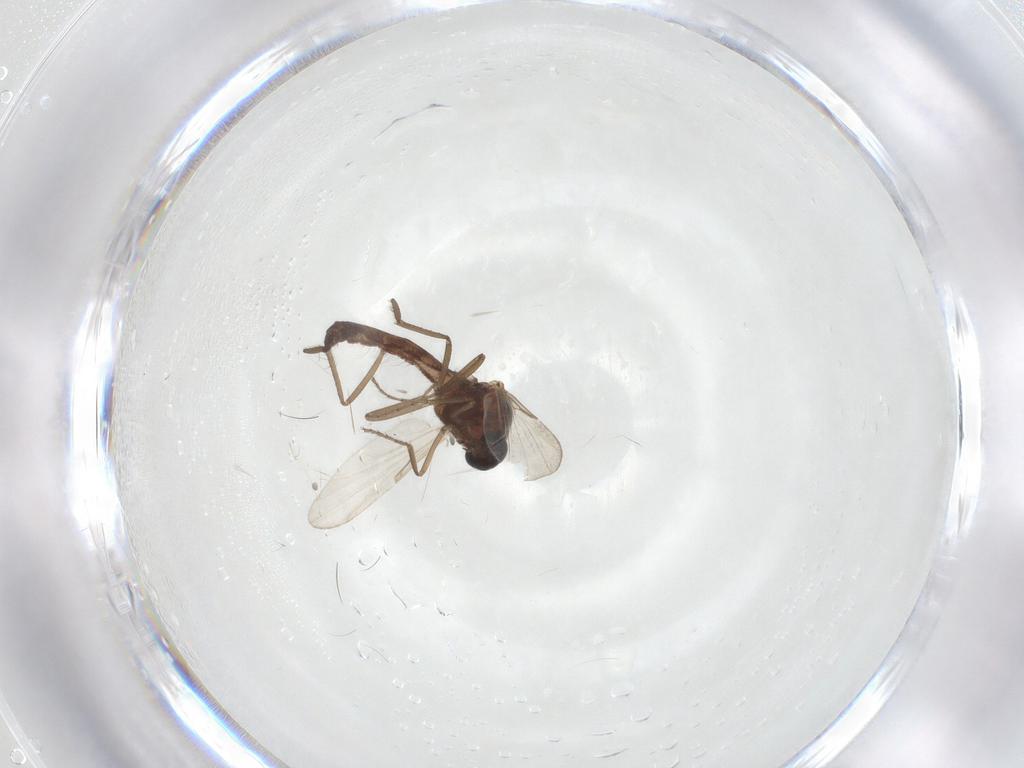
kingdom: Animalia
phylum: Arthropoda
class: Insecta
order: Diptera
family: Ceratopogonidae
